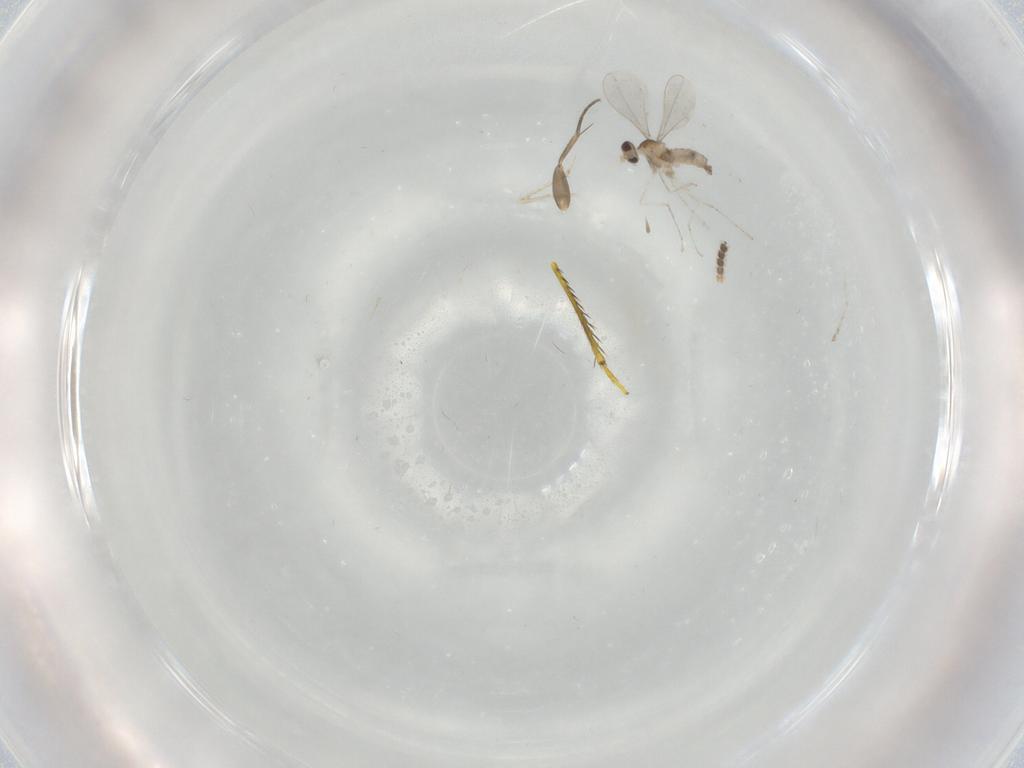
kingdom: Animalia
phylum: Arthropoda
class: Insecta
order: Diptera
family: Cecidomyiidae
